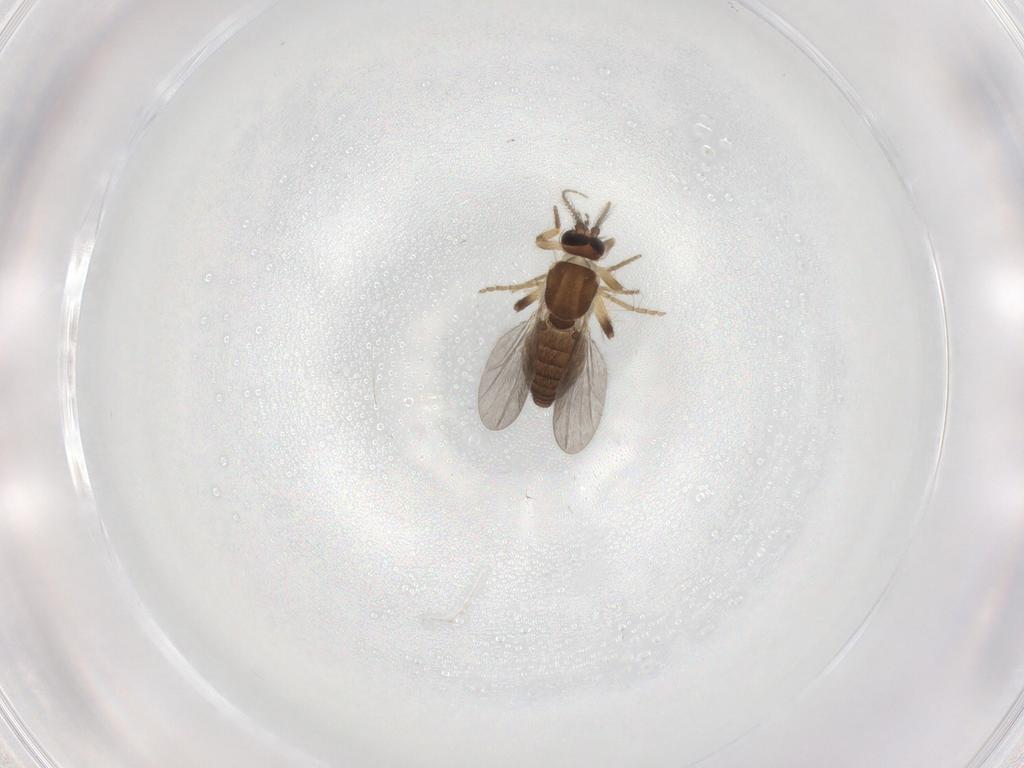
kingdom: Animalia
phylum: Arthropoda
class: Insecta
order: Diptera
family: Ceratopogonidae
